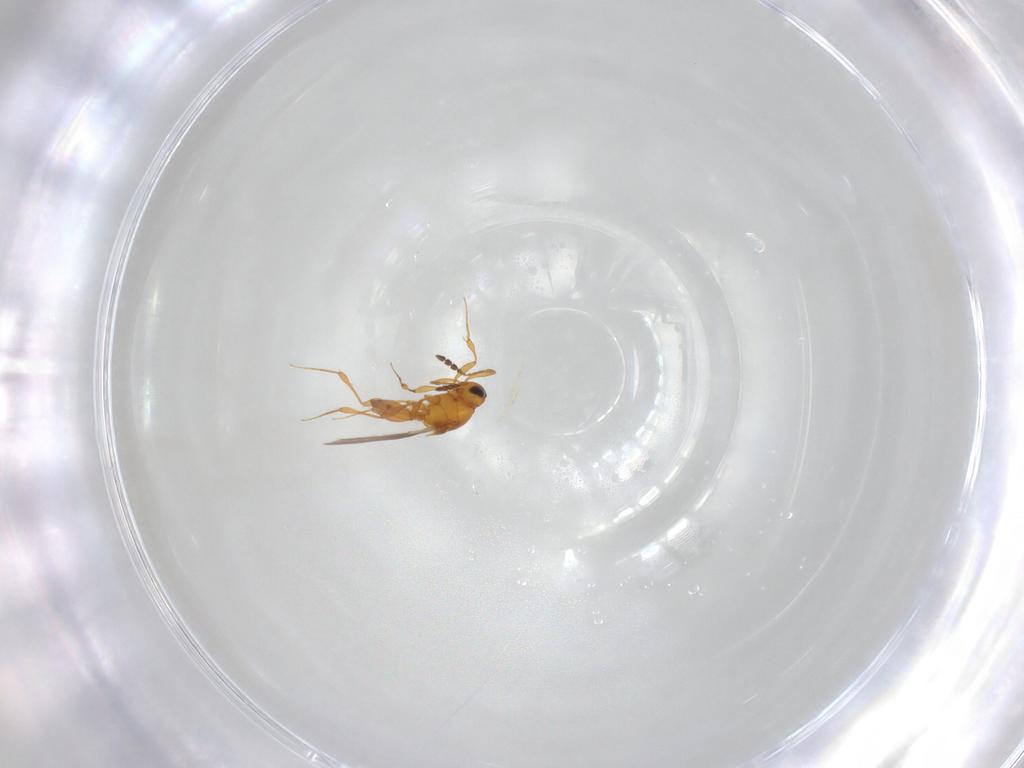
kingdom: Animalia
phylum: Arthropoda
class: Insecta
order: Hymenoptera
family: Platygastridae
